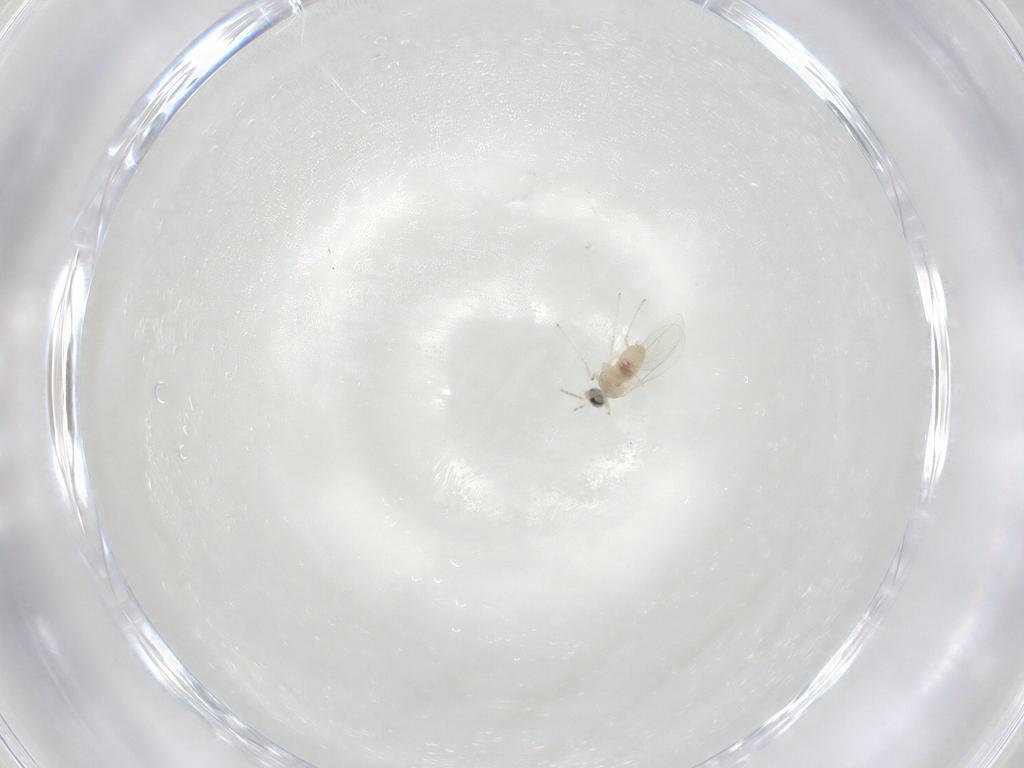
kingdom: Animalia
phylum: Arthropoda
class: Insecta
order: Diptera
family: Cecidomyiidae
